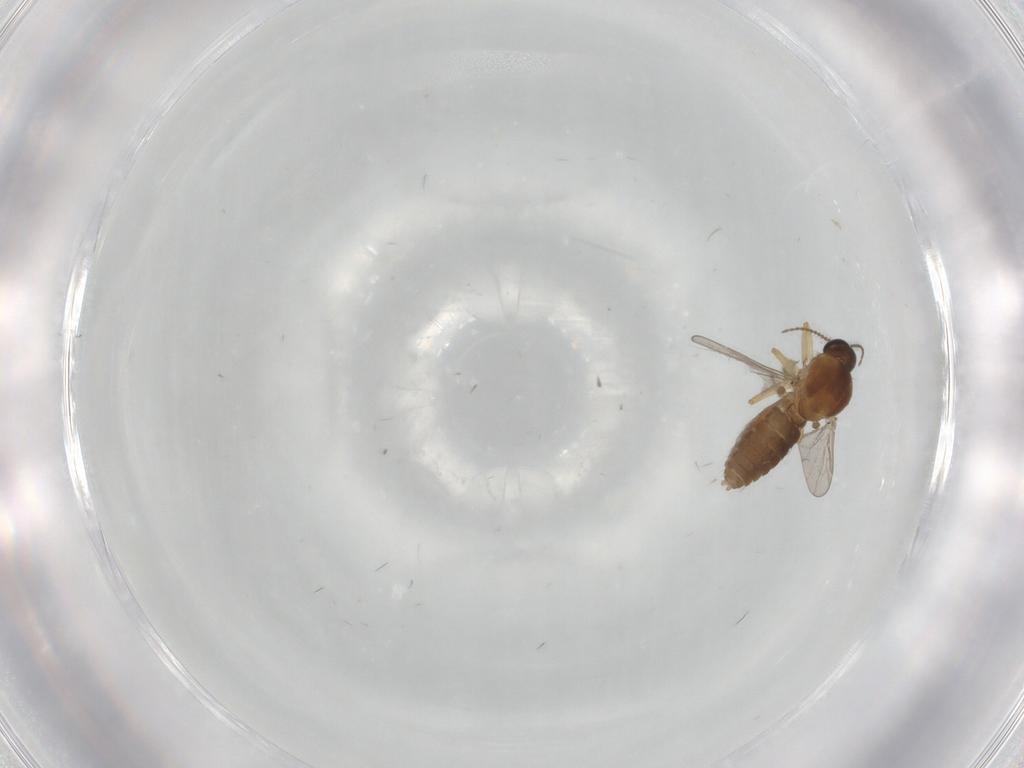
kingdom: Animalia
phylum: Arthropoda
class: Insecta
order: Diptera
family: Ceratopogonidae
